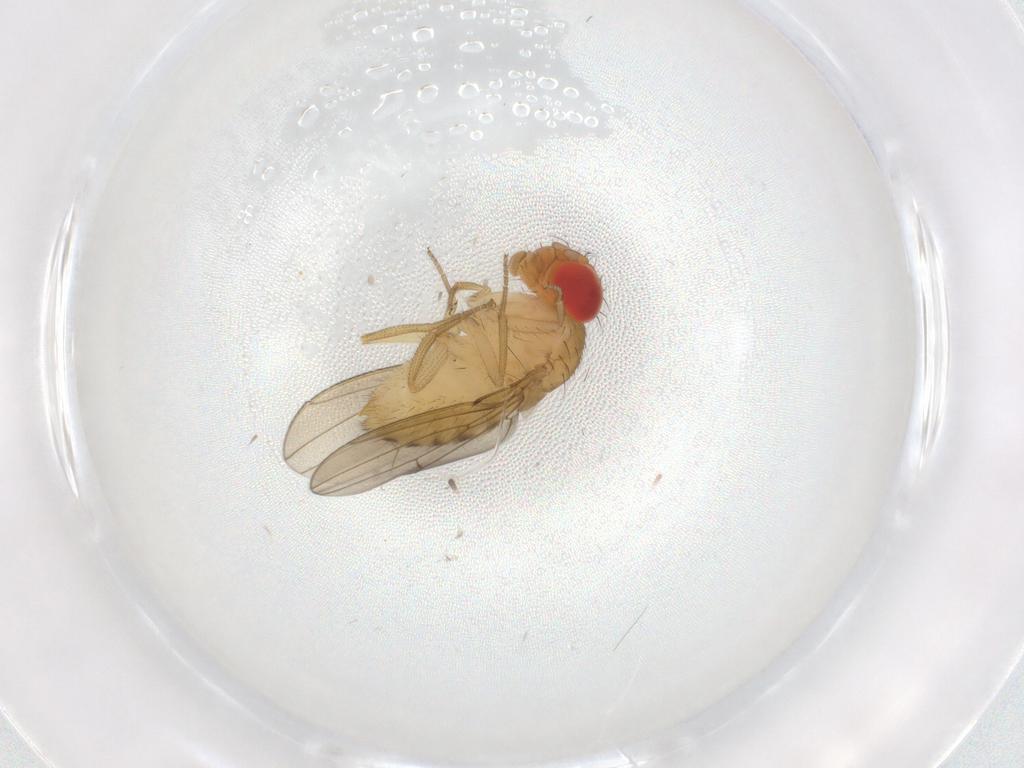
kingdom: Animalia
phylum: Arthropoda
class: Insecta
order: Diptera
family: Drosophilidae
